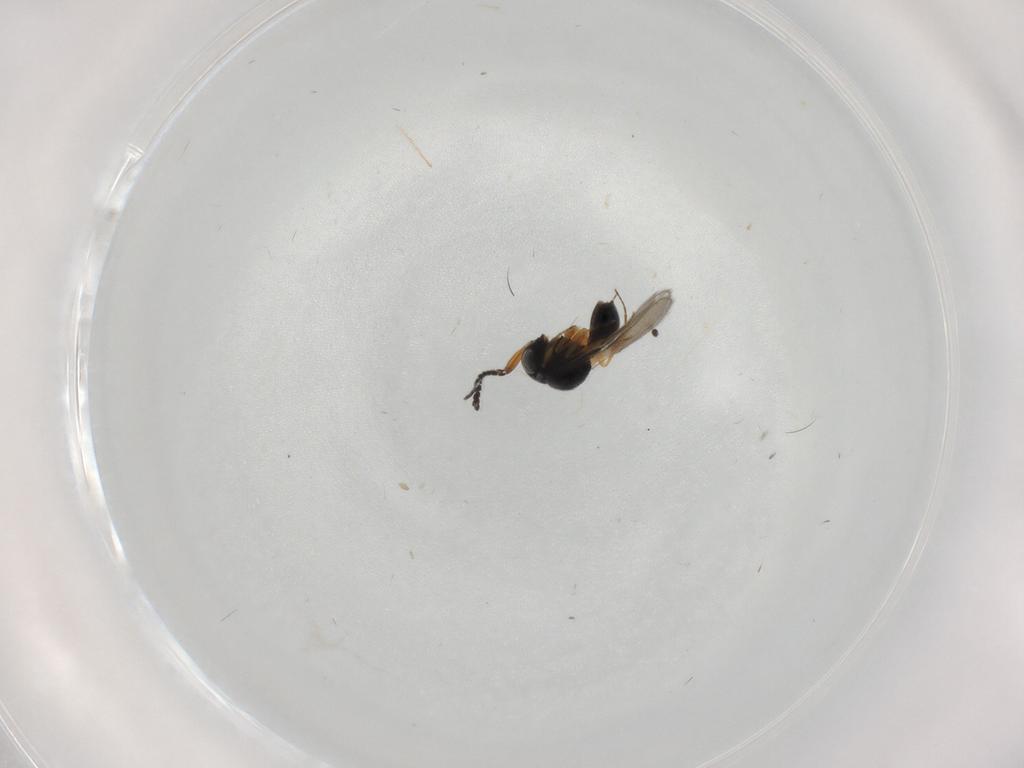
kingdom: Animalia
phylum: Arthropoda
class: Insecta
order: Hymenoptera
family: Scelionidae
